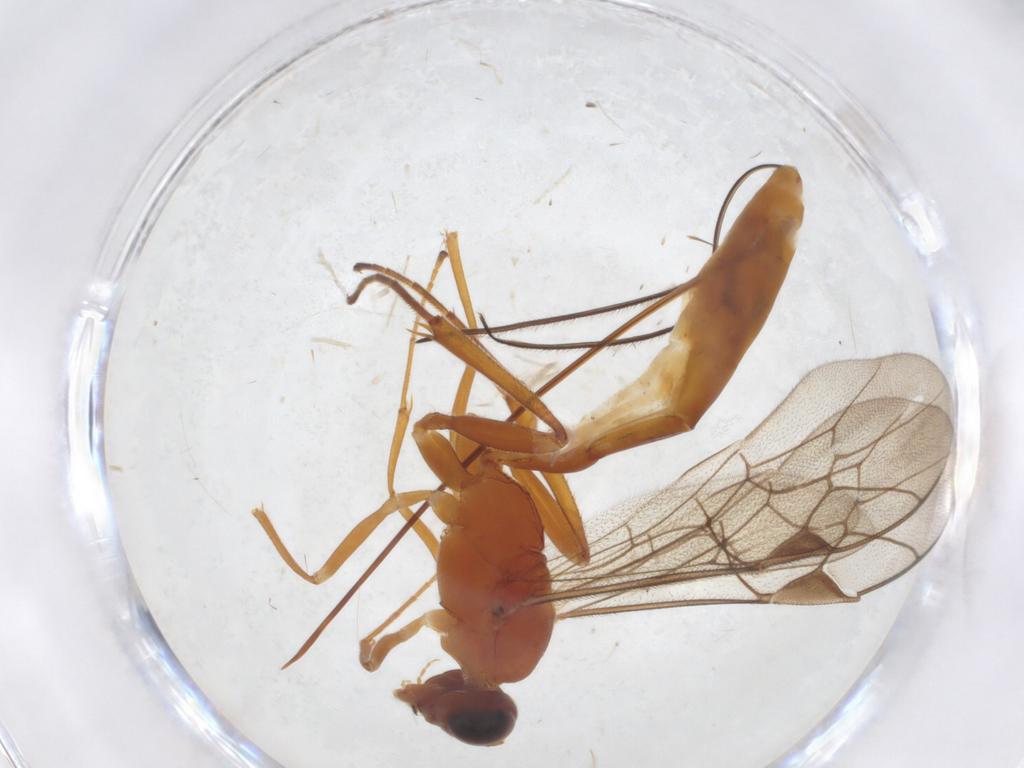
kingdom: Animalia
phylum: Arthropoda
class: Insecta
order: Hymenoptera
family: Ichneumonidae
